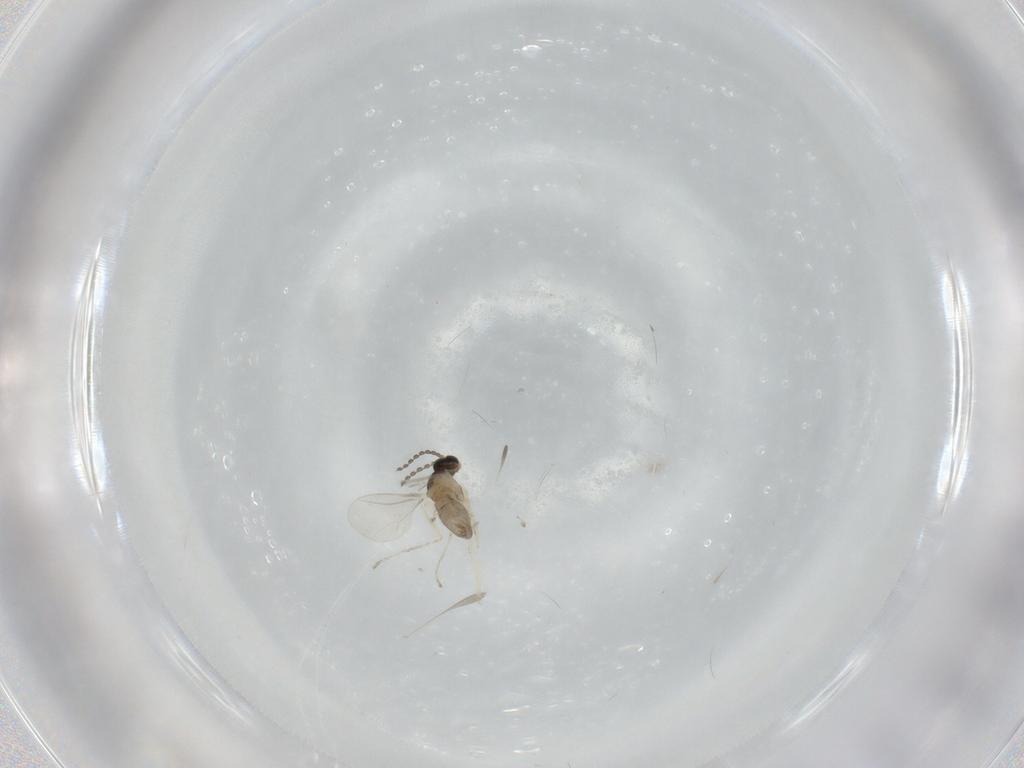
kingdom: Animalia
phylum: Arthropoda
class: Insecta
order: Diptera
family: Cecidomyiidae
